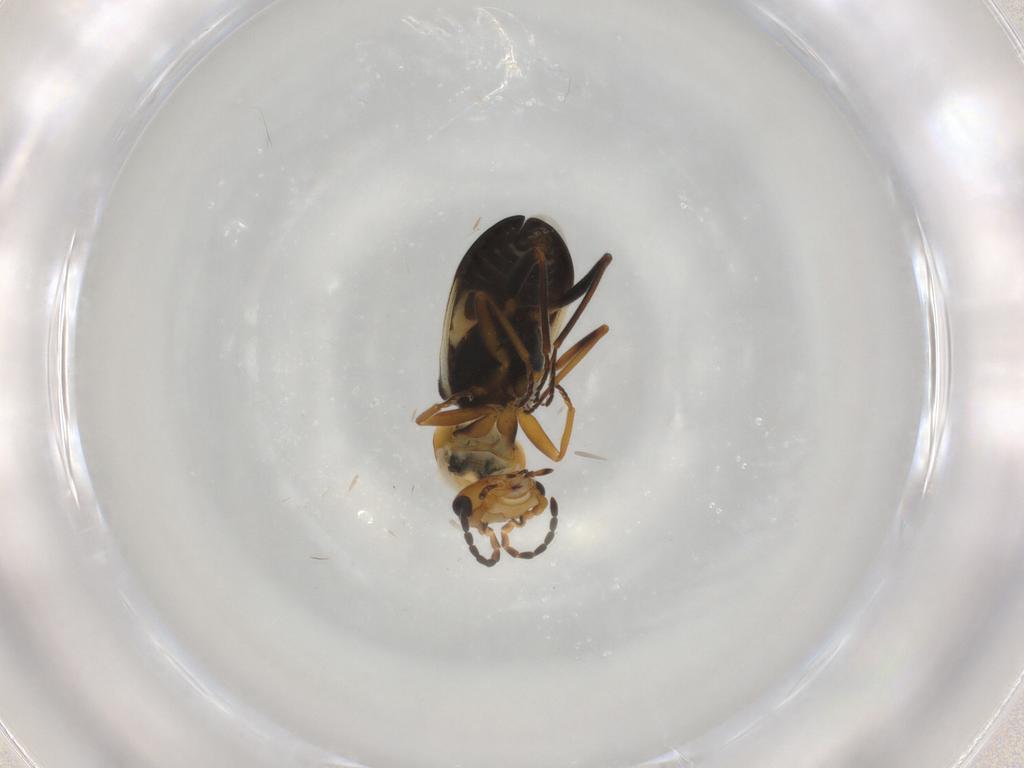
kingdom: Animalia
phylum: Arthropoda
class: Insecta
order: Coleoptera
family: Melyridae
